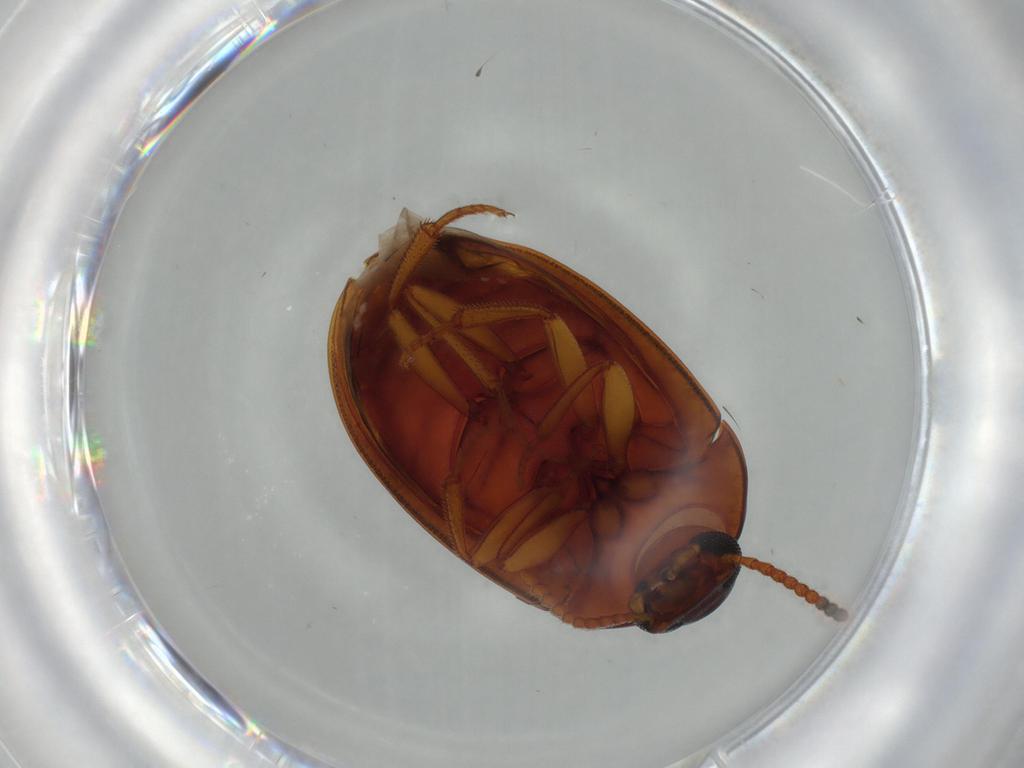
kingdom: Animalia
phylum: Arthropoda
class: Insecta
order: Coleoptera
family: Tenebrionidae
